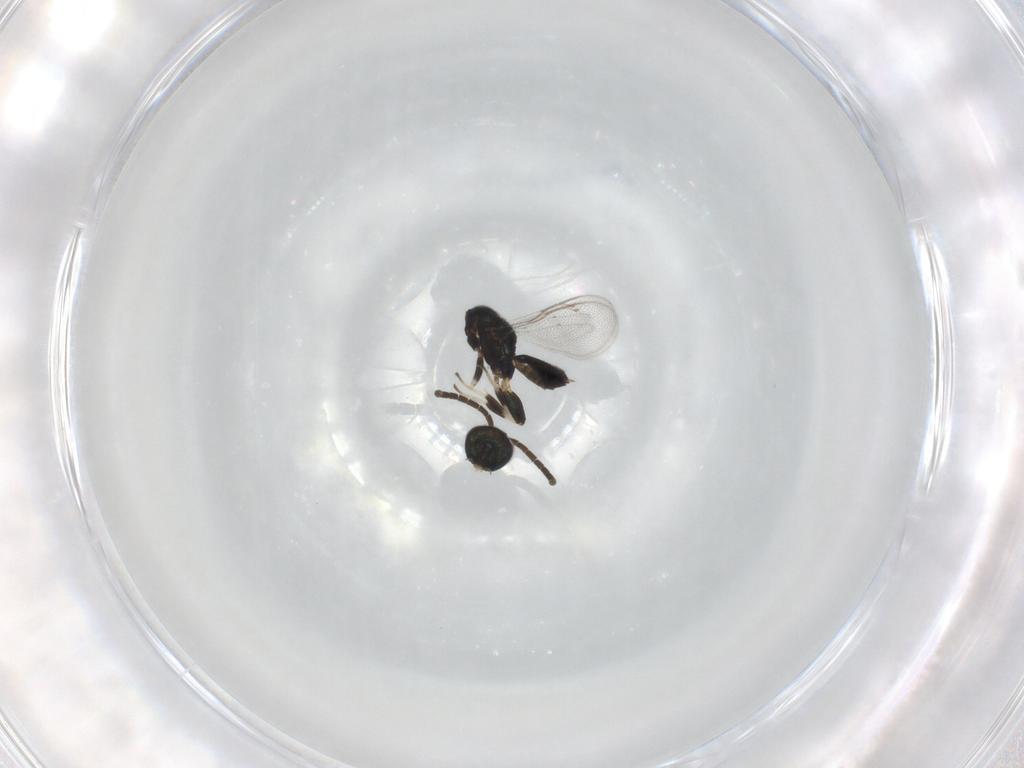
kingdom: Animalia
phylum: Arthropoda
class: Insecta
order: Hymenoptera
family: Eupelmidae
